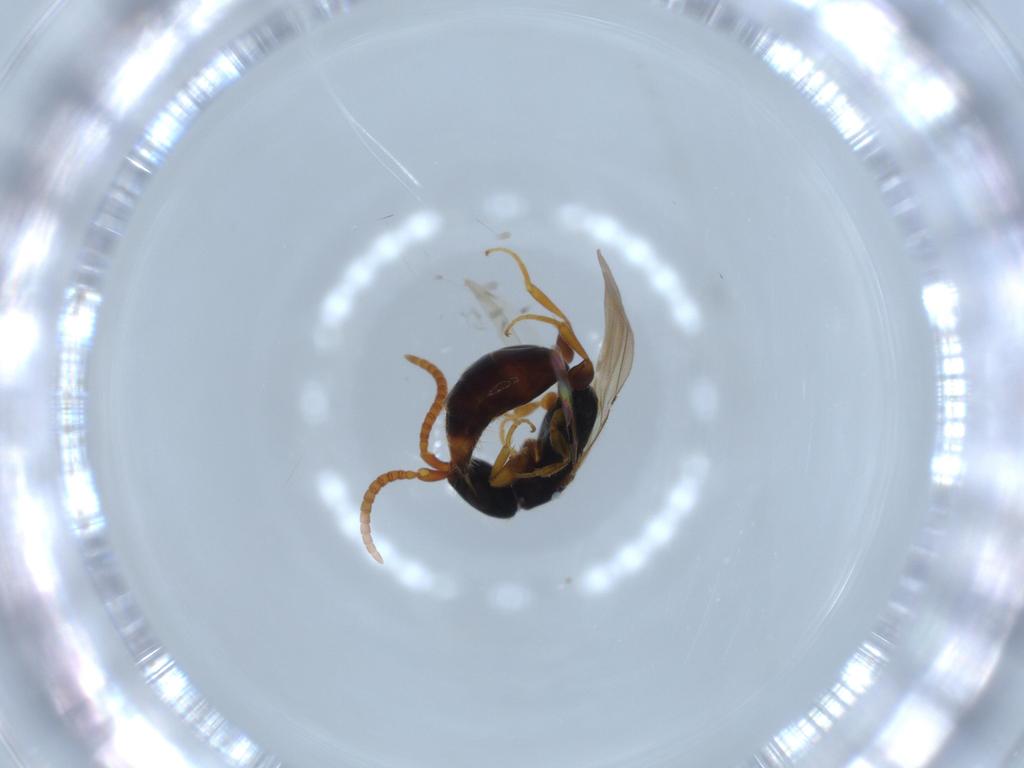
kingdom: Animalia
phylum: Arthropoda
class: Insecta
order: Hymenoptera
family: Bethylidae
